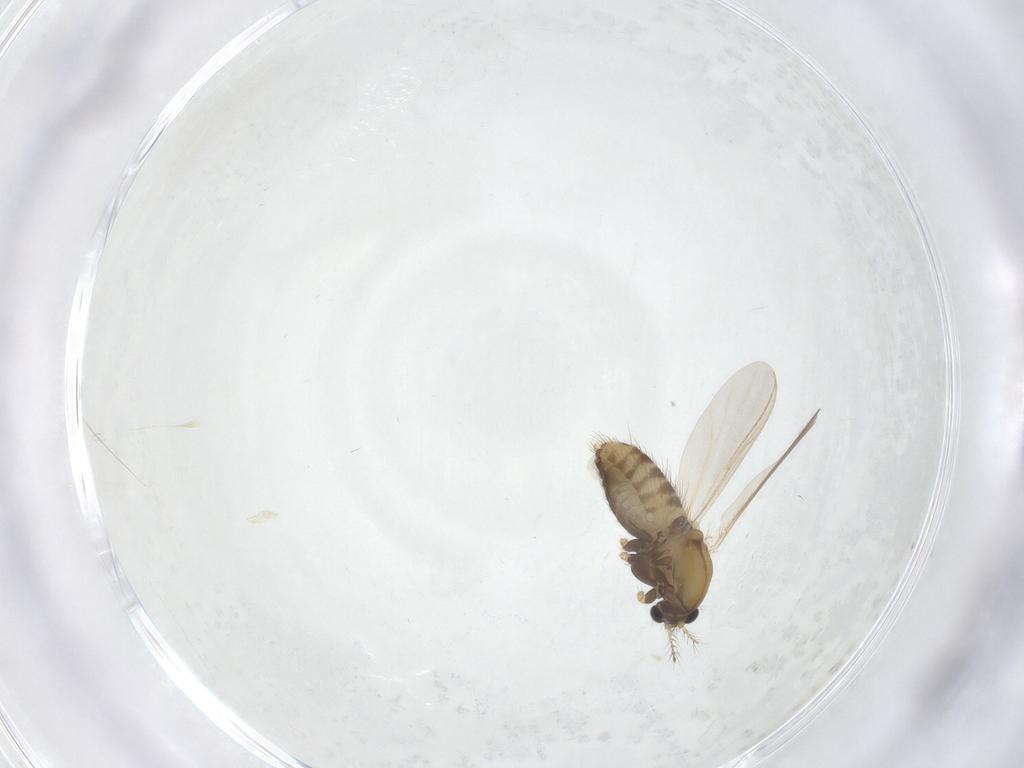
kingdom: Animalia
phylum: Arthropoda
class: Insecta
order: Diptera
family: Chironomidae
